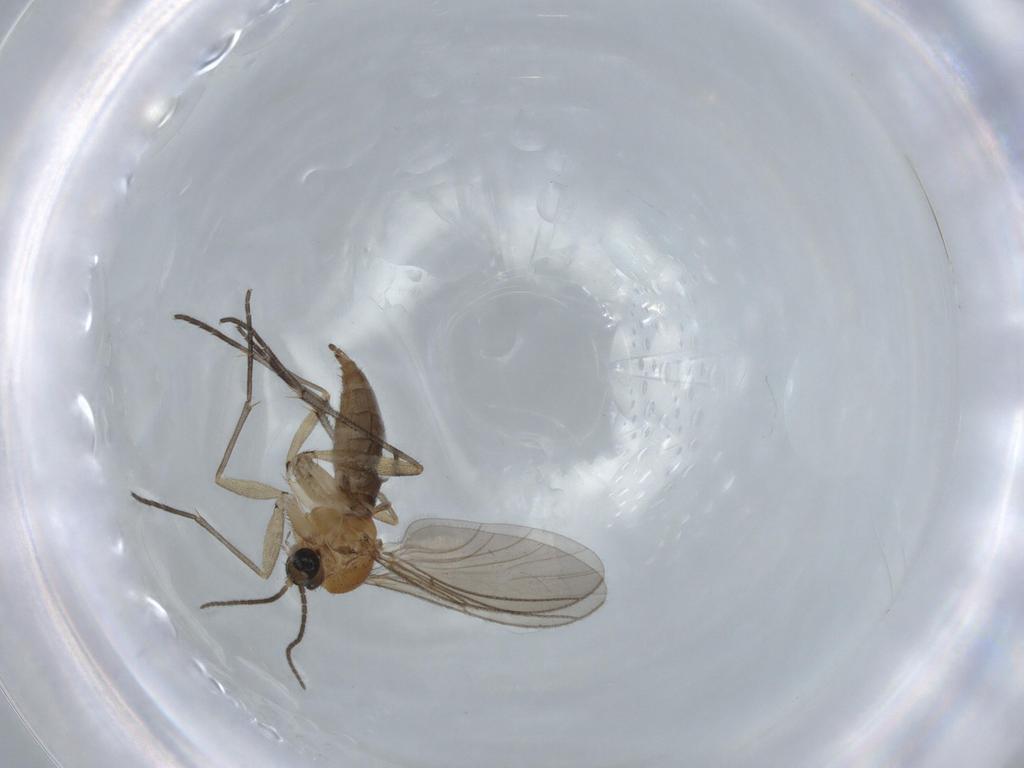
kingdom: Animalia
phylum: Arthropoda
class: Insecta
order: Diptera
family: Sciaridae
